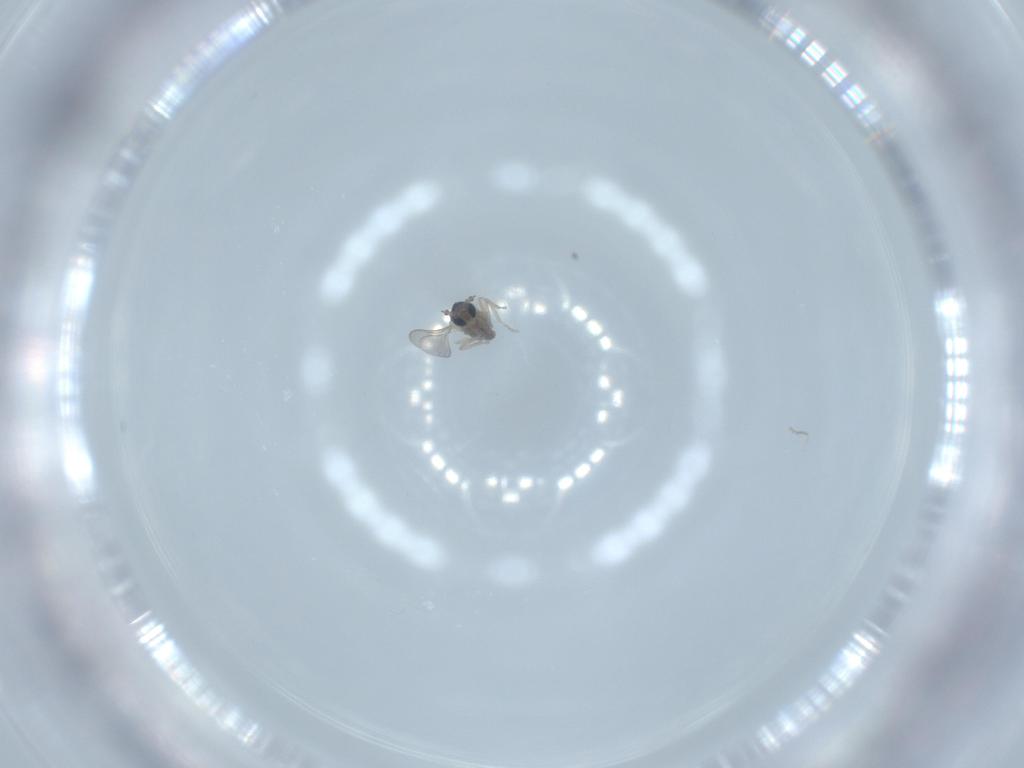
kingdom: Animalia
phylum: Arthropoda
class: Insecta
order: Diptera
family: Cecidomyiidae
